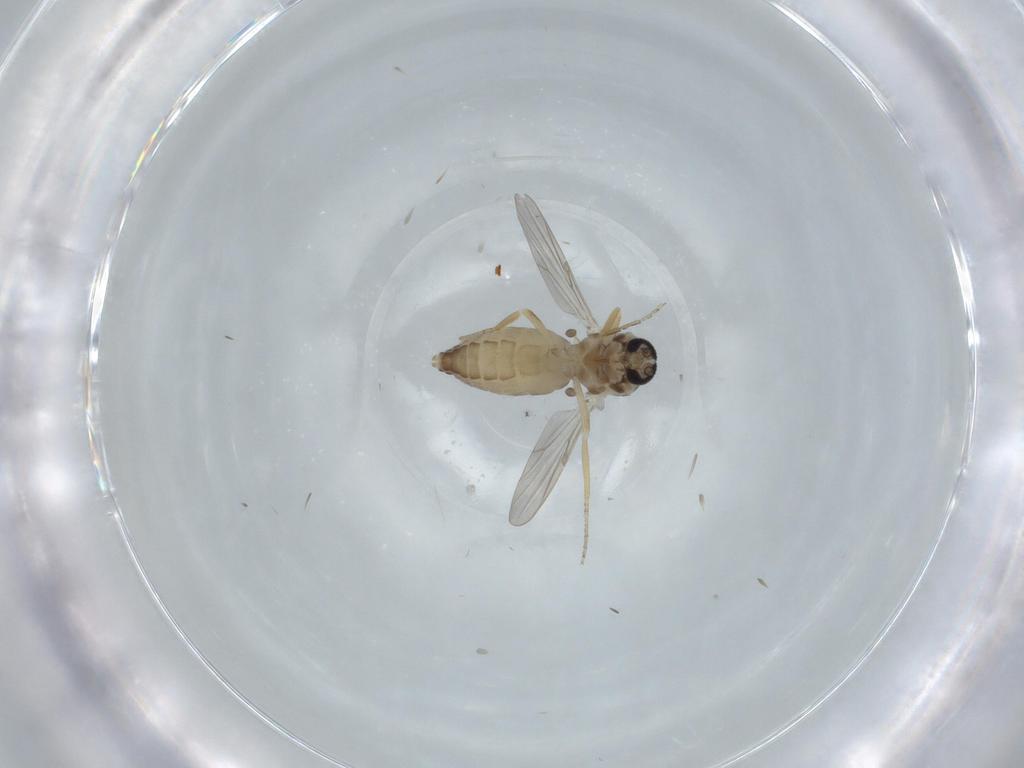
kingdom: Animalia
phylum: Arthropoda
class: Insecta
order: Diptera
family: Ceratopogonidae
